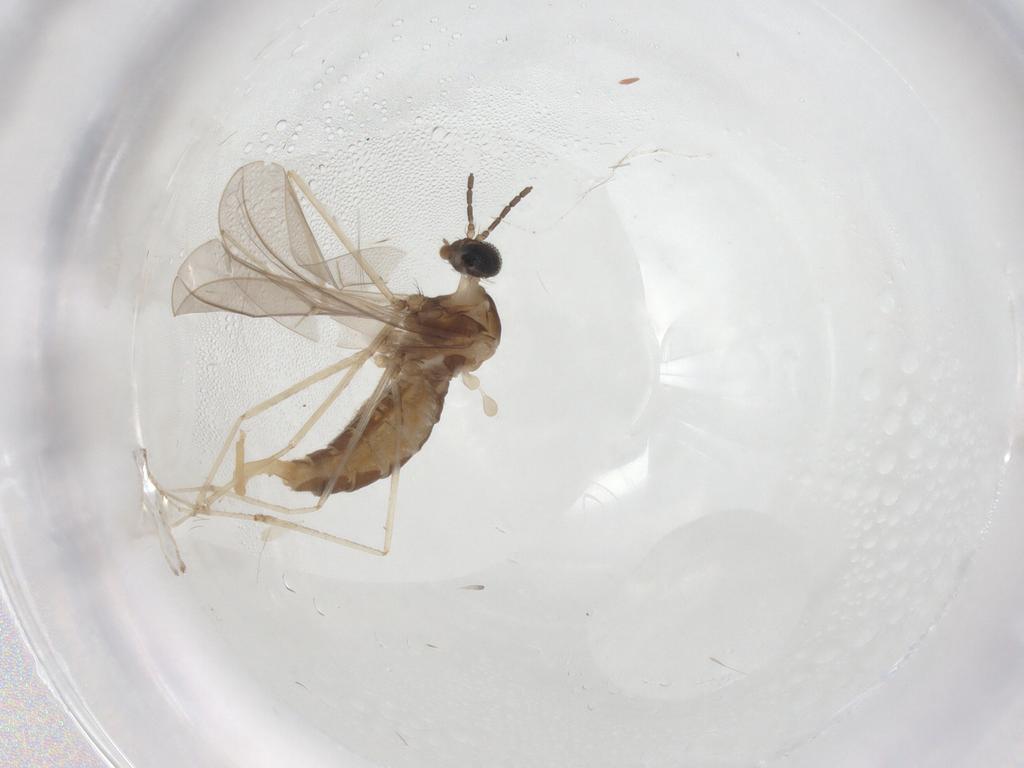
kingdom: Animalia
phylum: Arthropoda
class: Insecta
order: Diptera
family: Cecidomyiidae
